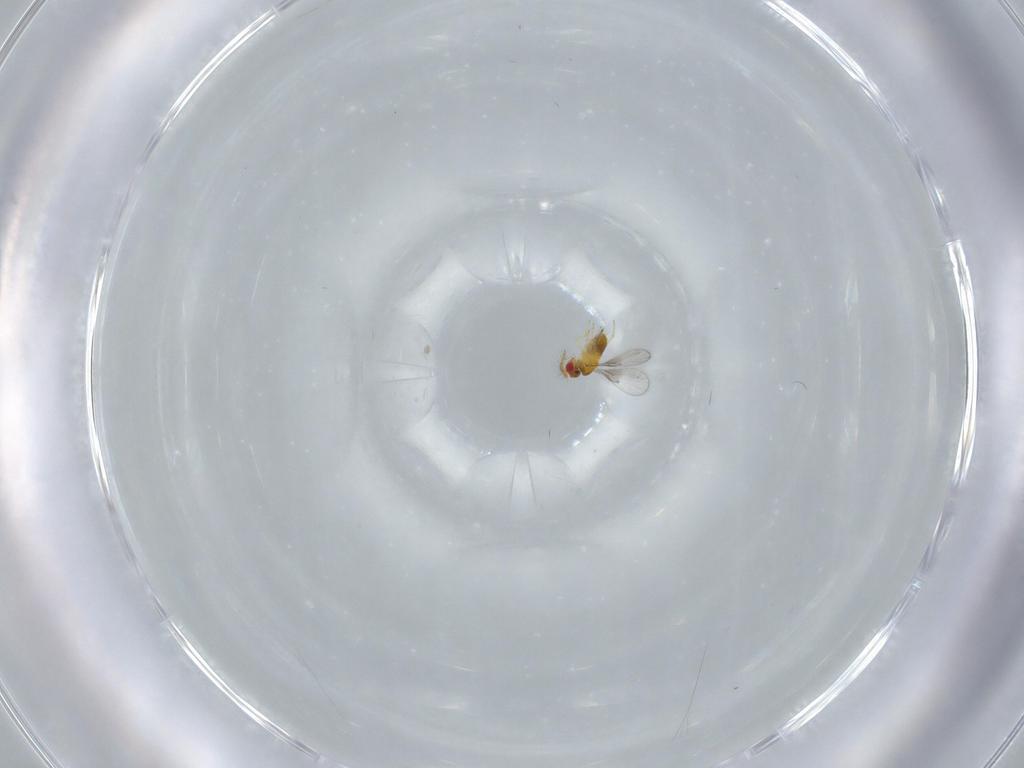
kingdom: Animalia
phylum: Arthropoda
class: Insecta
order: Hymenoptera
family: Trichogrammatidae
